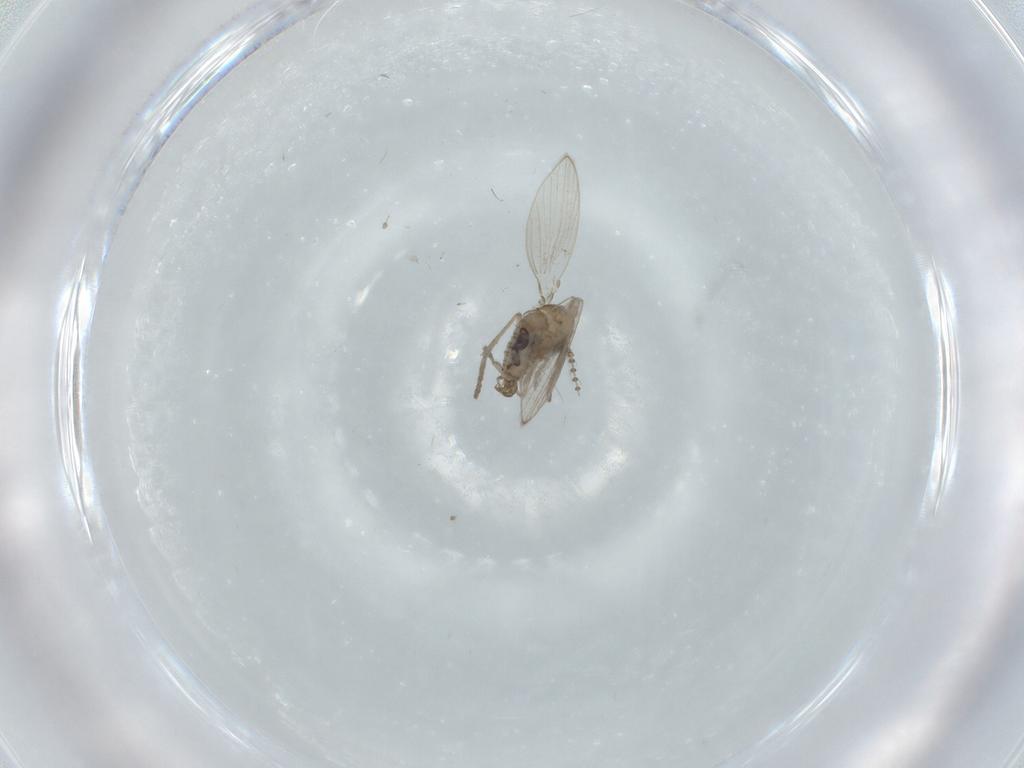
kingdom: Animalia
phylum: Arthropoda
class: Insecta
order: Diptera
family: Psychodidae
